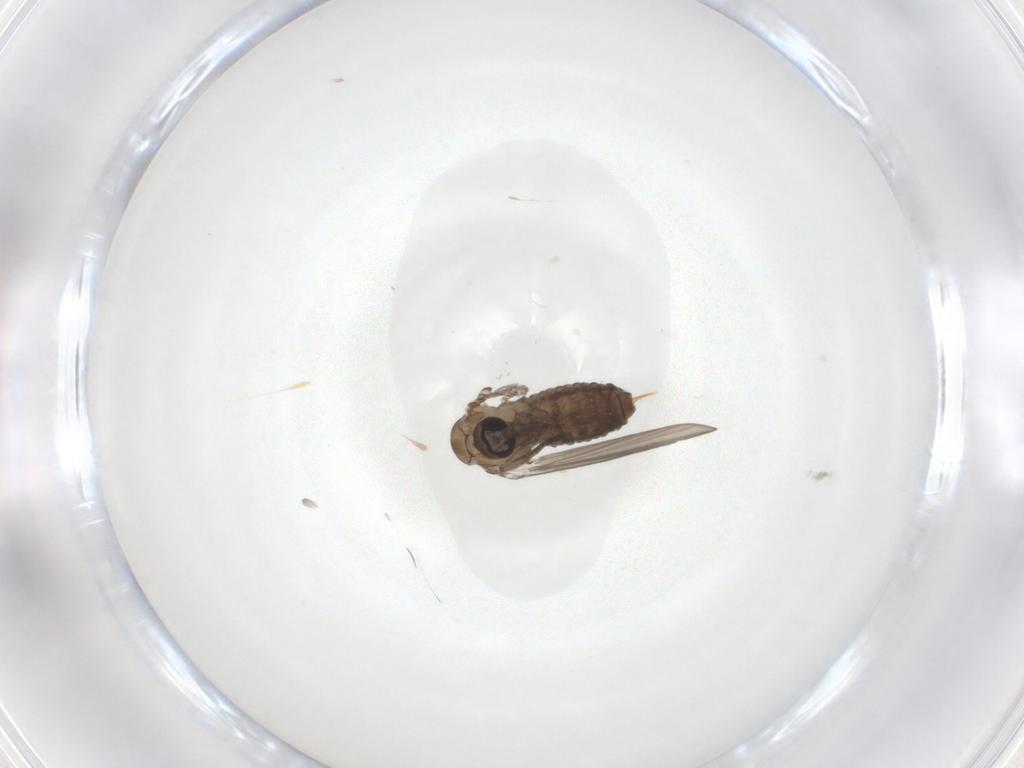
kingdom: Animalia
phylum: Arthropoda
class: Insecta
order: Diptera
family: Psychodidae
